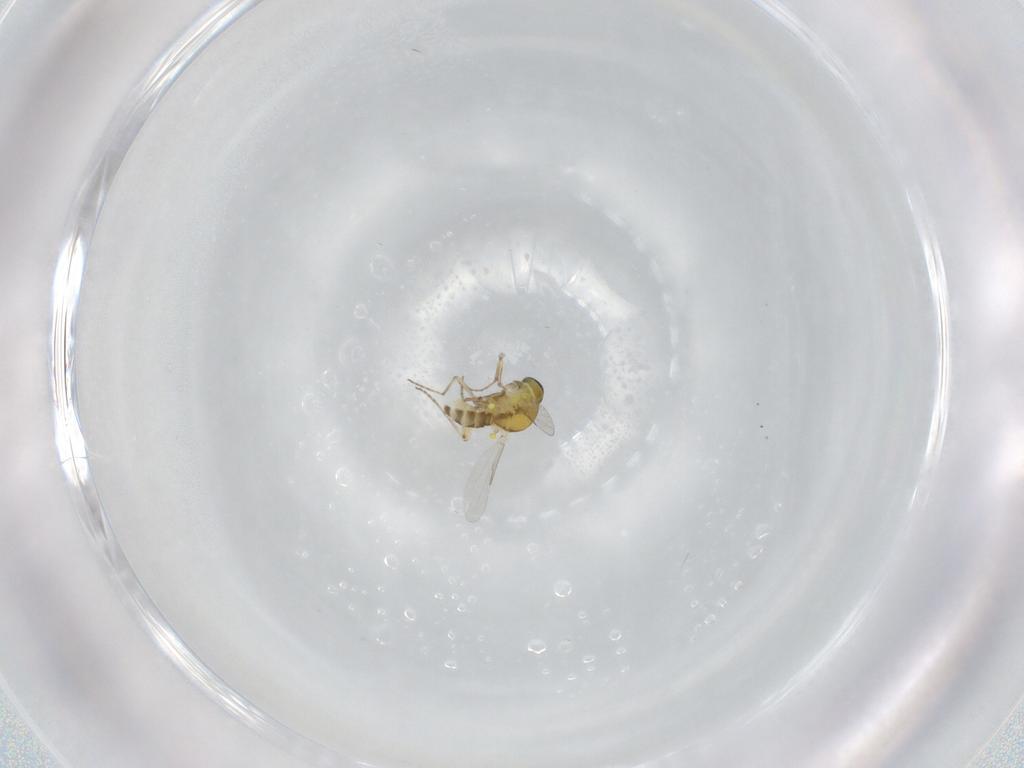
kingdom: Animalia
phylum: Arthropoda
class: Insecta
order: Diptera
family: Ceratopogonidae
